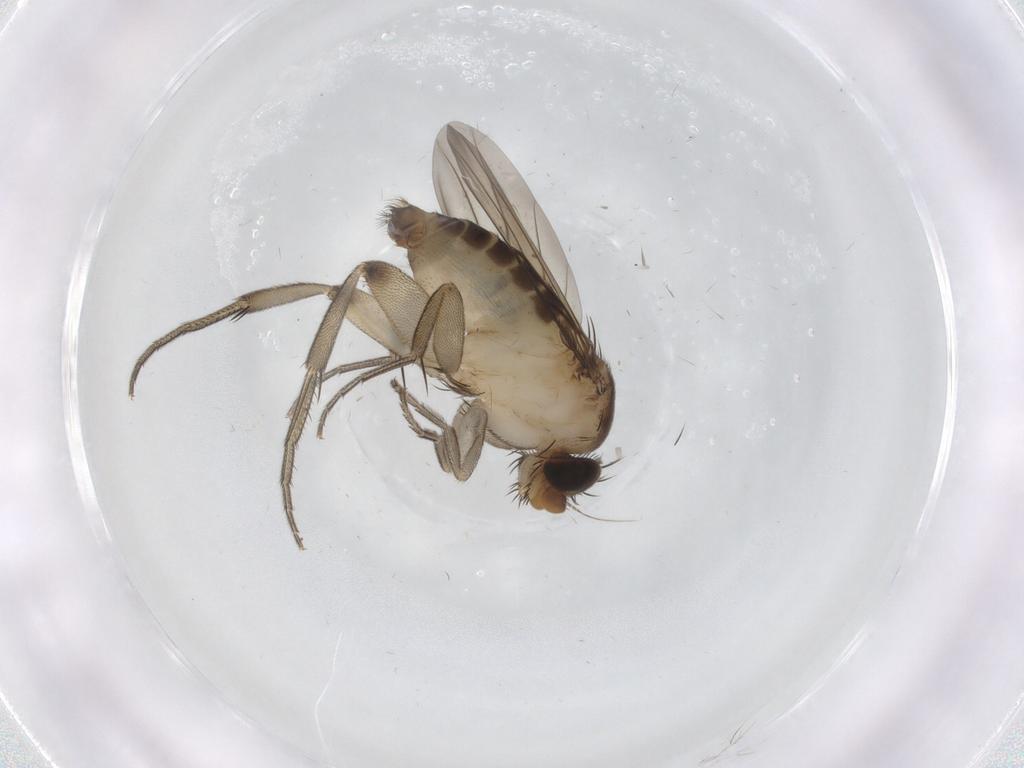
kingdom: Animalia
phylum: Arthropoda
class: Insecta
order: Diptera
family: Phoridae
